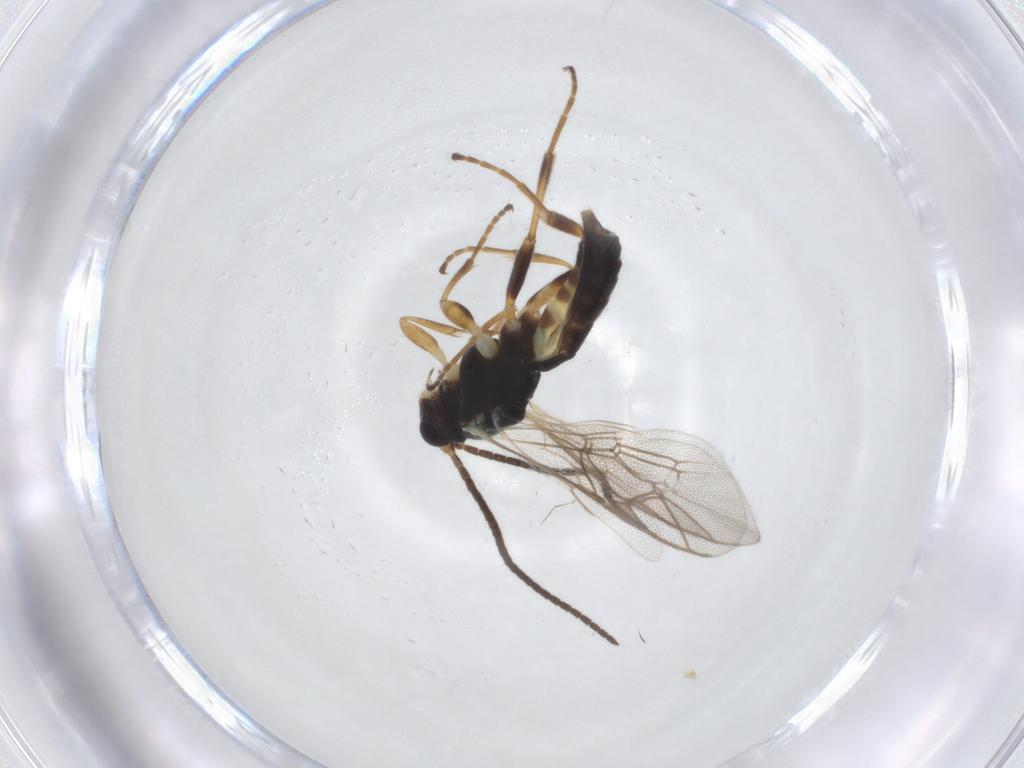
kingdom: Animalia
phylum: Arthropoda
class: Insecta
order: Hymenoptera
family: Ichneumonidae
